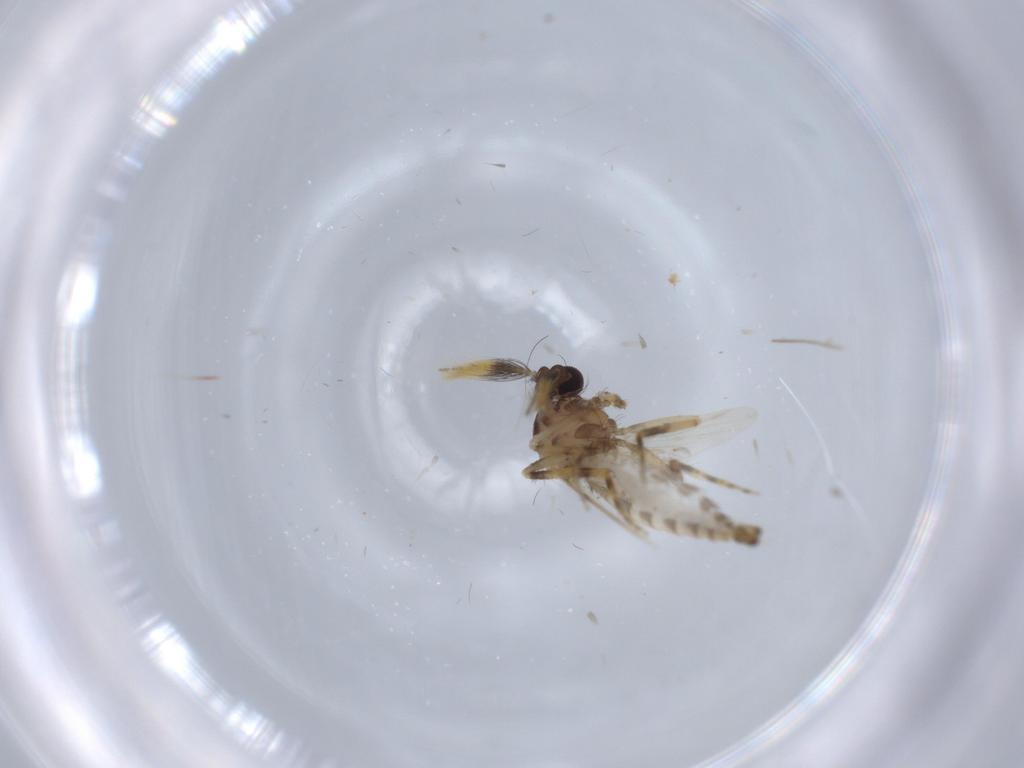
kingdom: Animalia
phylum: Arthropoda
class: Insecta
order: Diptera
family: Ceratopogonidae
